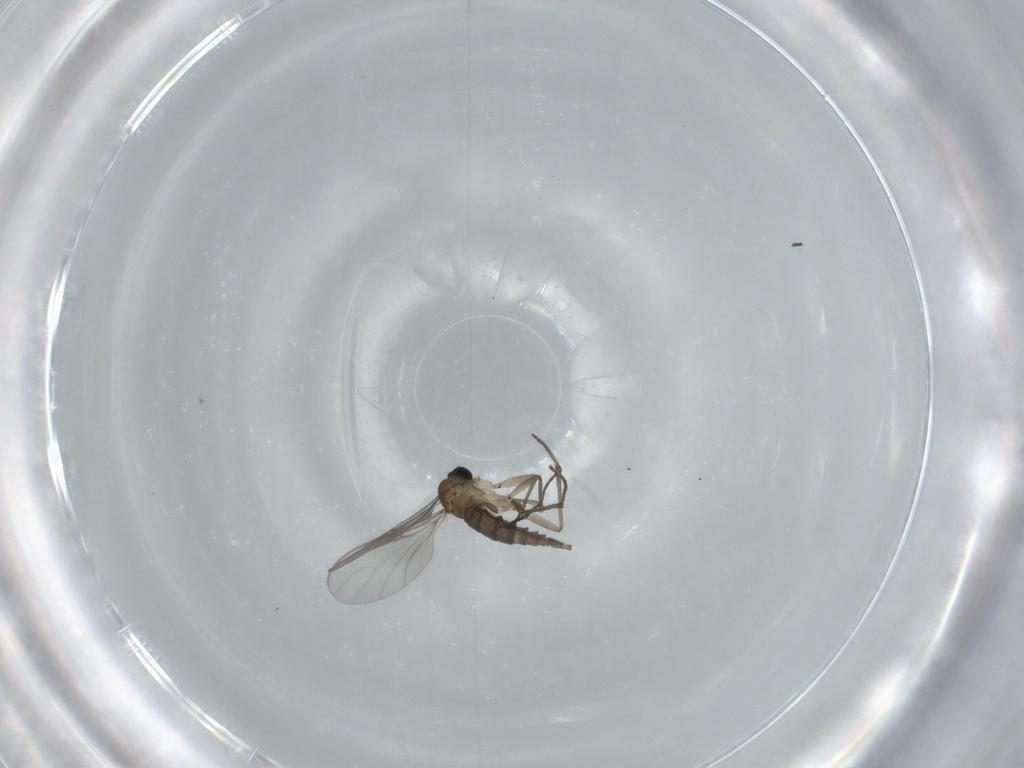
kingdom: Animalia
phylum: Arthropoda
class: Insecta
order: Diptera
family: Sciaridae
